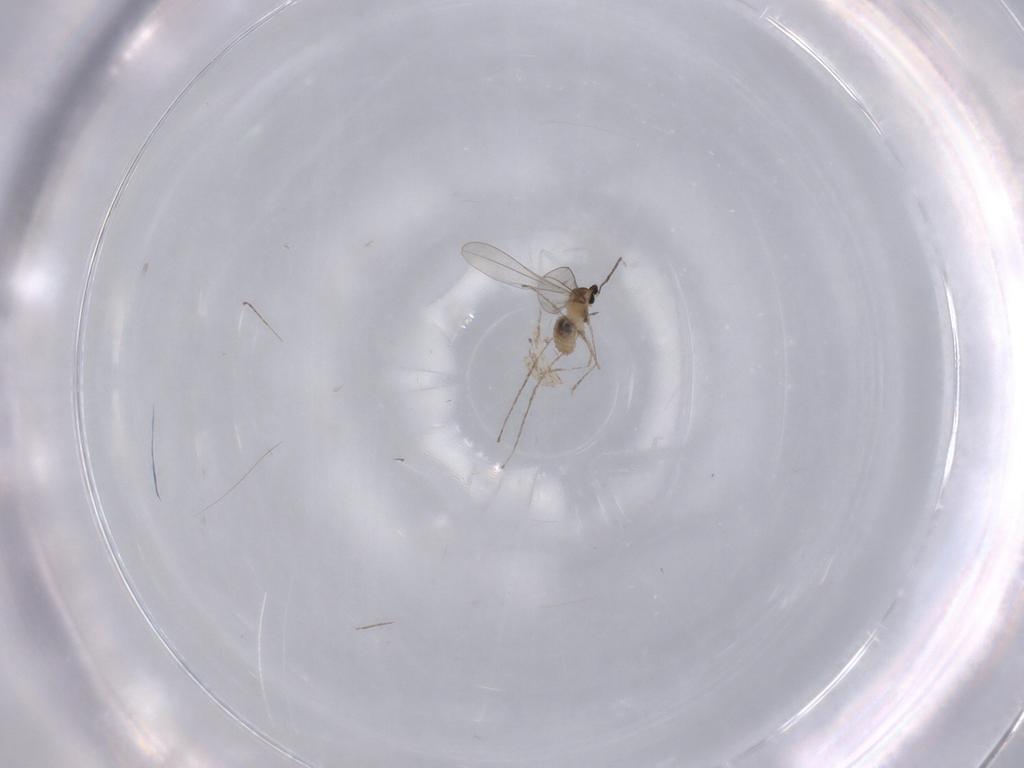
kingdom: Animalia
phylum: Arthropoda
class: Insecta
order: Diptera
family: Cecidomyiidae
